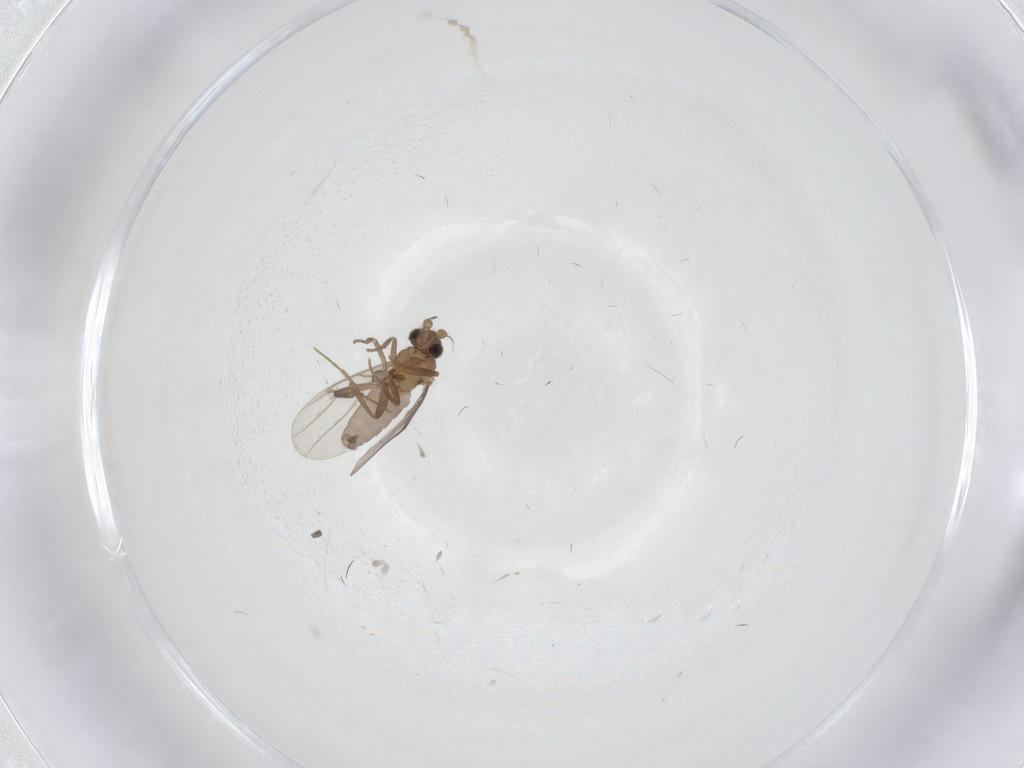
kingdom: Animalia
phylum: Arthropoda
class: Insecta
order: Diptera
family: Chironomidae
